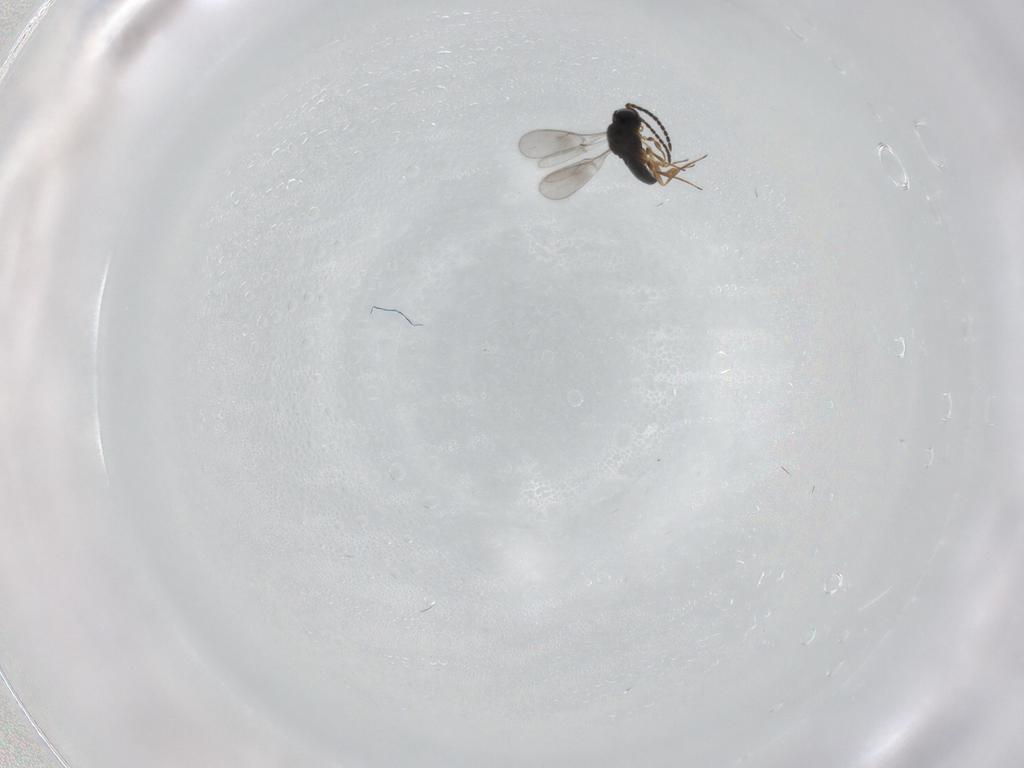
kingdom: Animalia
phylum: Arthropoda
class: Insecta
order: Hymenoptera
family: Scelionidae
